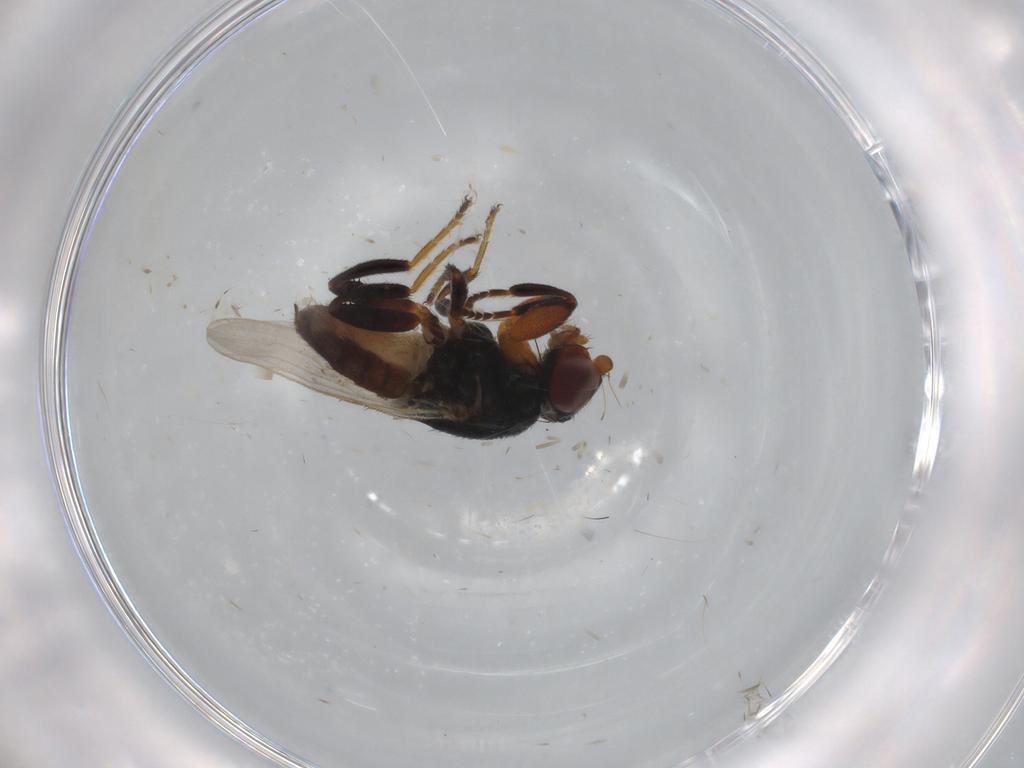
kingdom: Animalia
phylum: Arthropoda
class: Insecta
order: Diptera
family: Chloropidae
